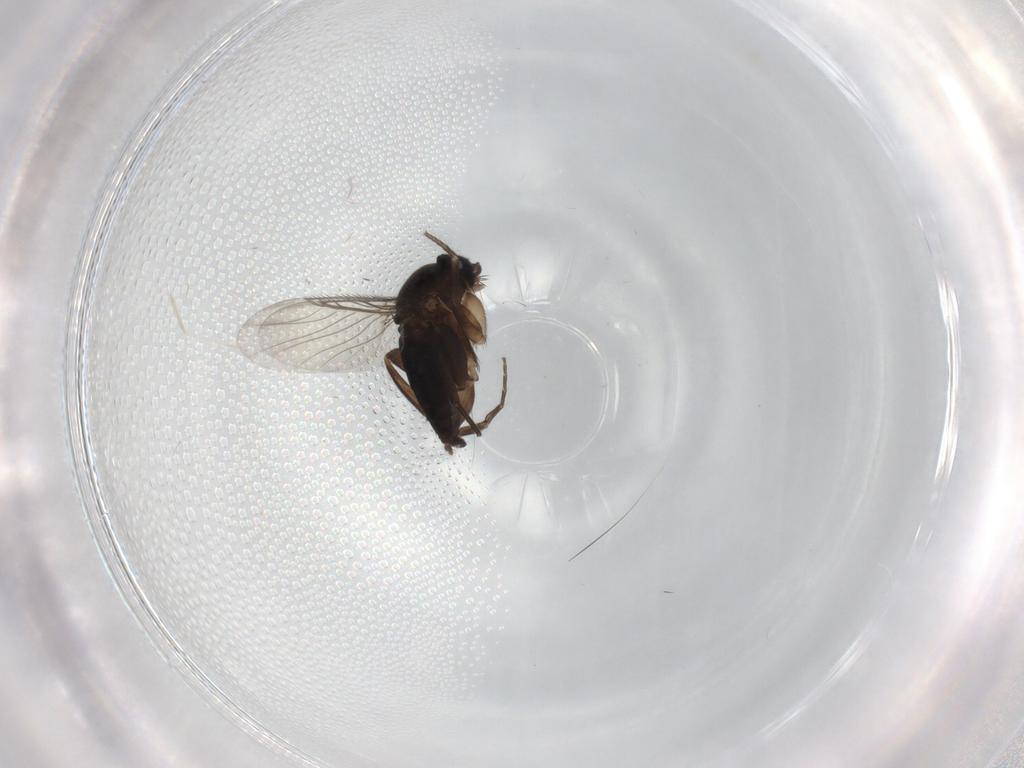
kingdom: Animalia
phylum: Arthropoda
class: Insecta
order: Diptera
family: Phoridae
